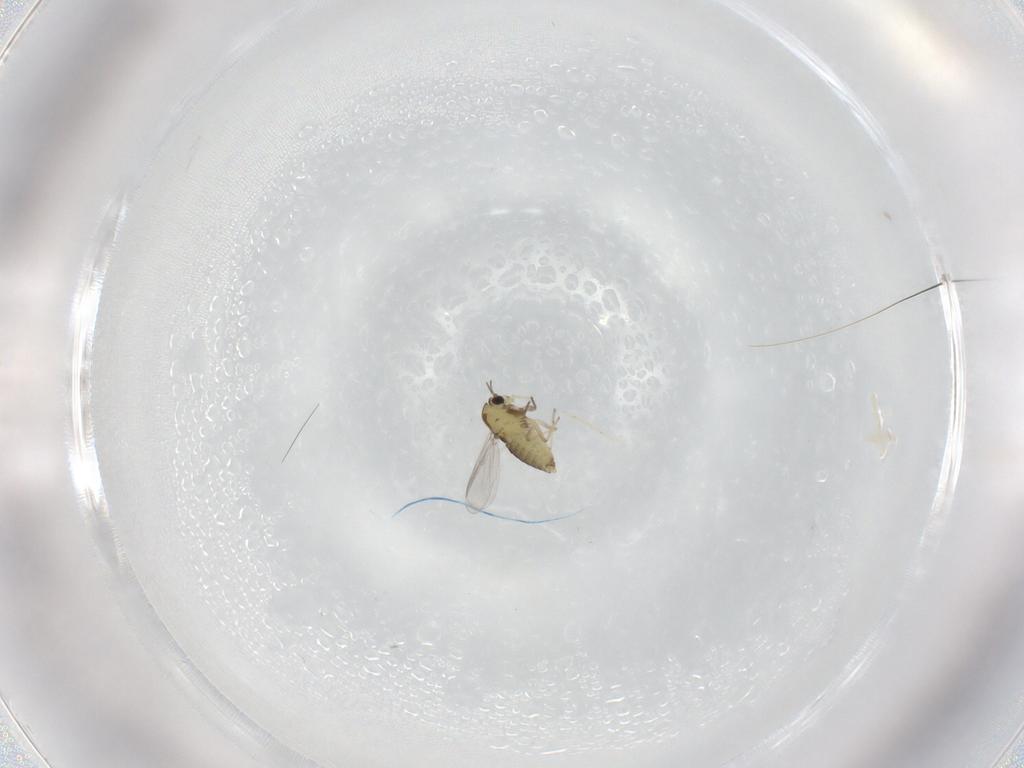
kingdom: Animalia
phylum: Arthropoda
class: Insecta
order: Diptera
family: Chironomidae
